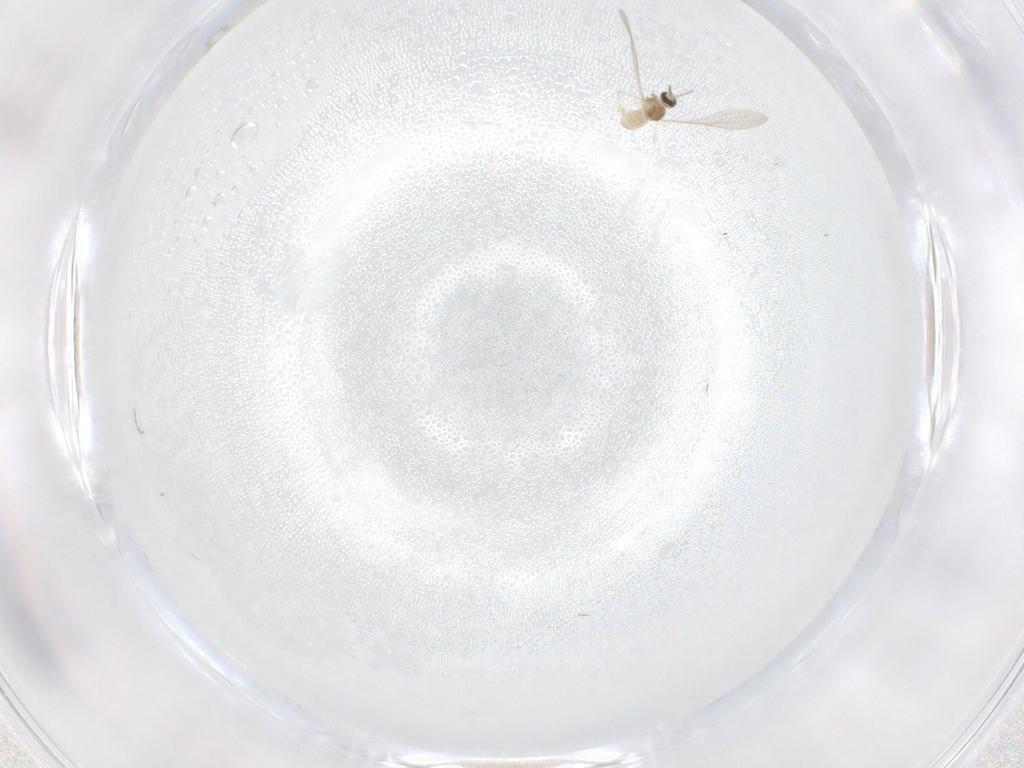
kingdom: Animalia
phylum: Arthropoda
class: Insecta
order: Diptera
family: Cecidomyiidae
